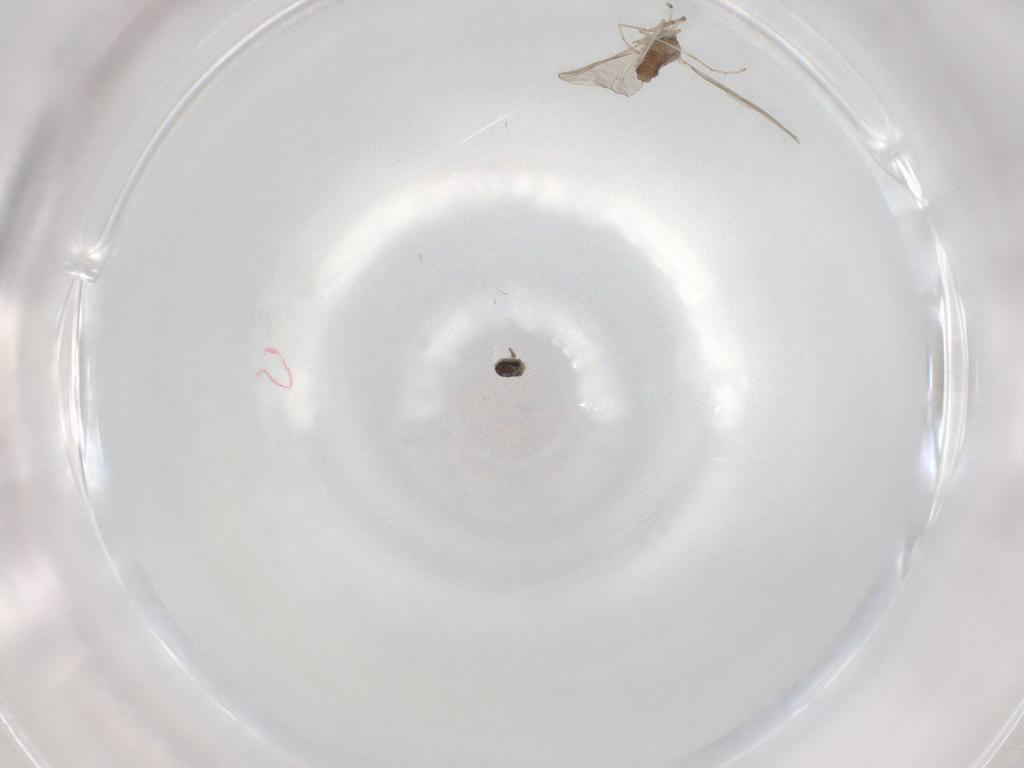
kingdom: Animalia
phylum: Arthropoda
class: Insecta
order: Diptera
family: Cecidomyiidae
